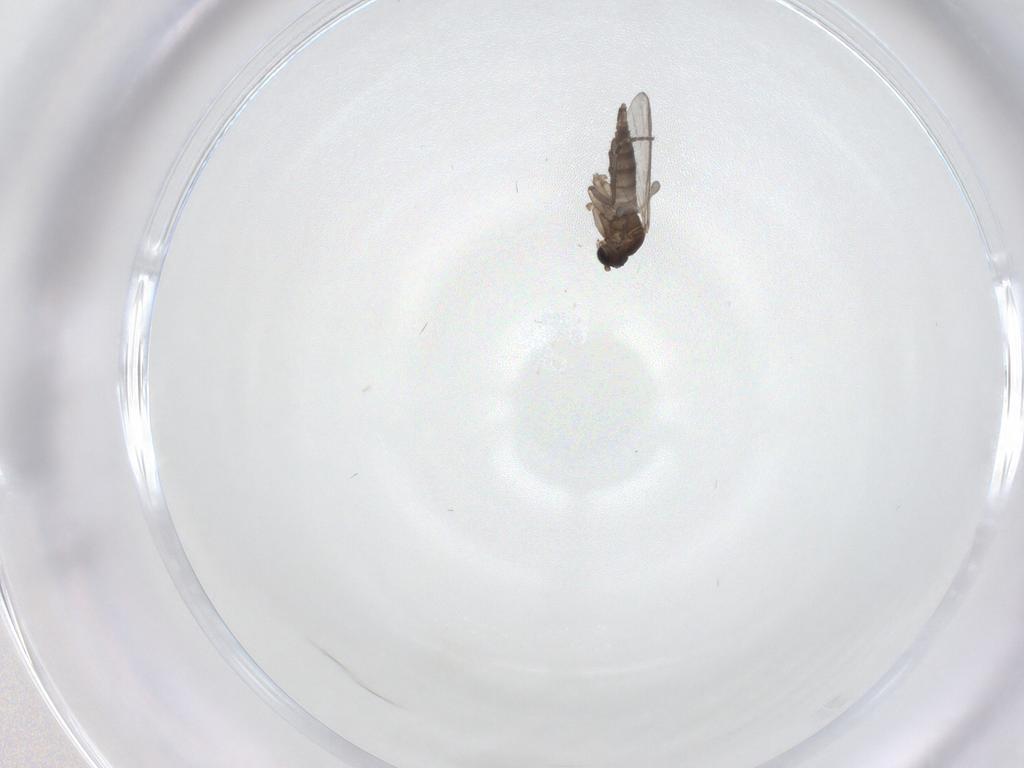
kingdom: Animalia
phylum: Arthropoda
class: Insecta
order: Diptera
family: Sciaridae
